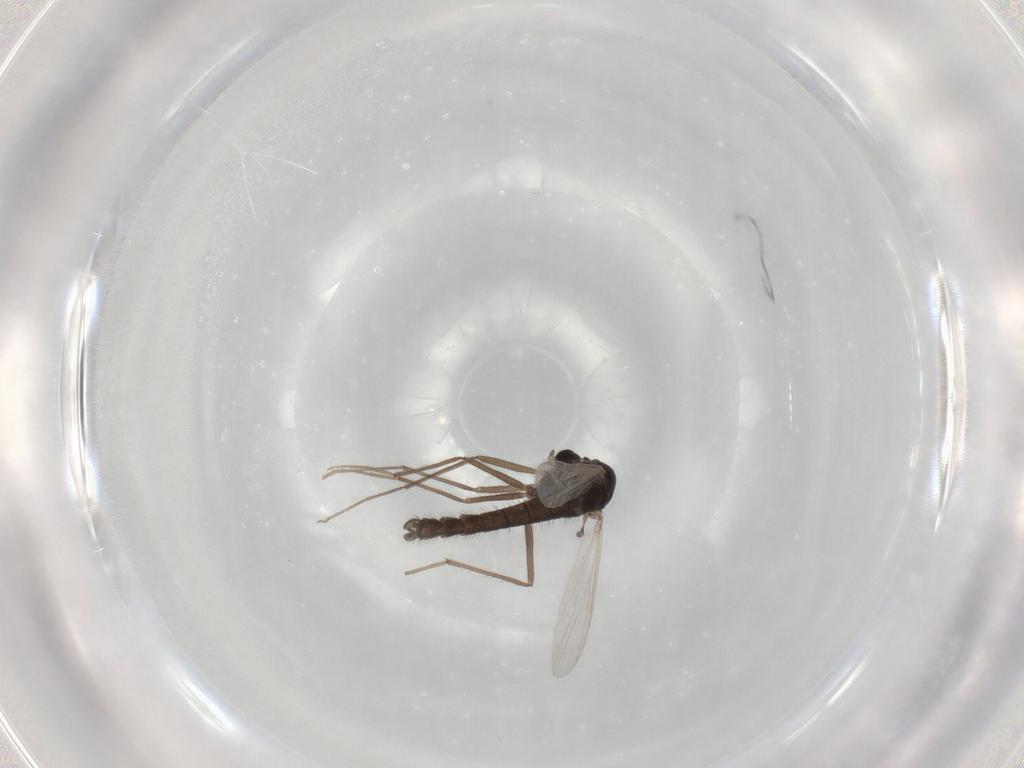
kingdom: Animalia
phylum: Arthropoda
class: Insecta
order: Diptera
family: Chironomidae
